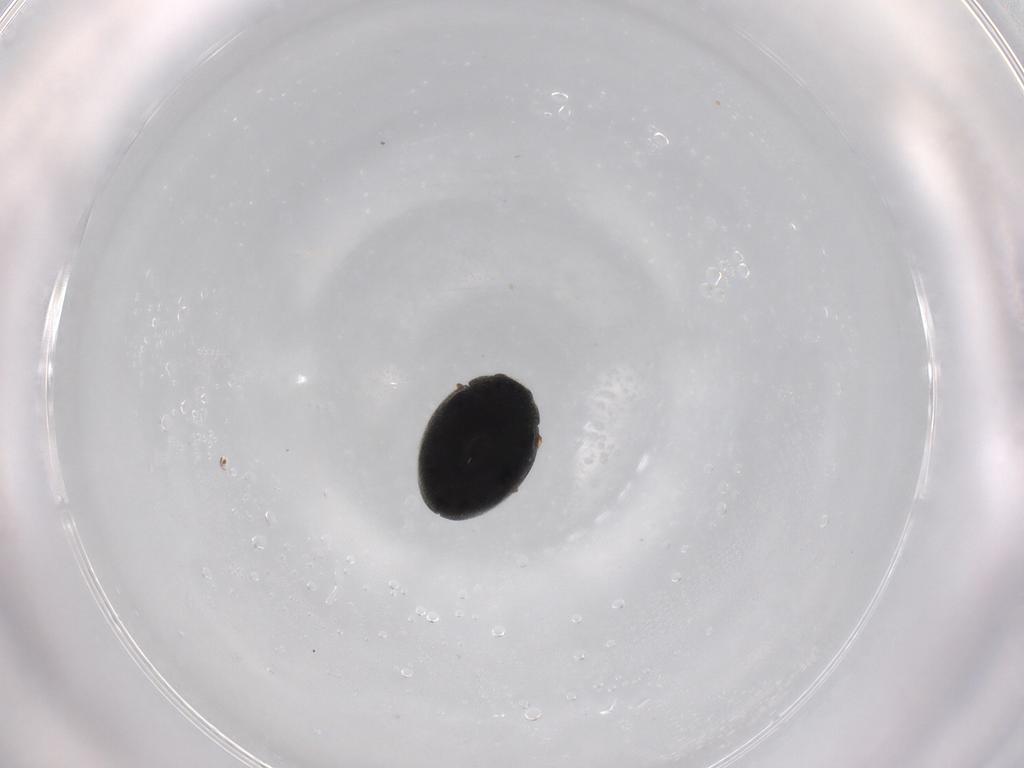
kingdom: Animalia
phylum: Arthropoda
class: Insecta
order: Coleoptera
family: Coccinellidae
